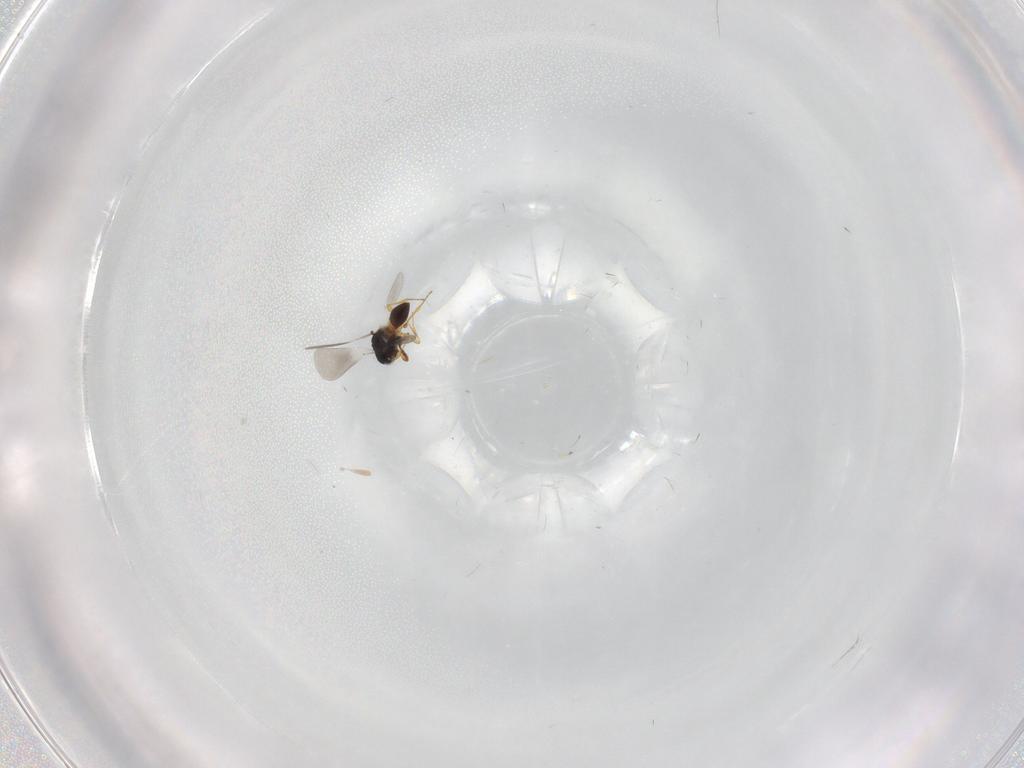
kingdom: Animalia
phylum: Arthropoda
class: Insecta
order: Hymenoptera
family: Platygastridae
